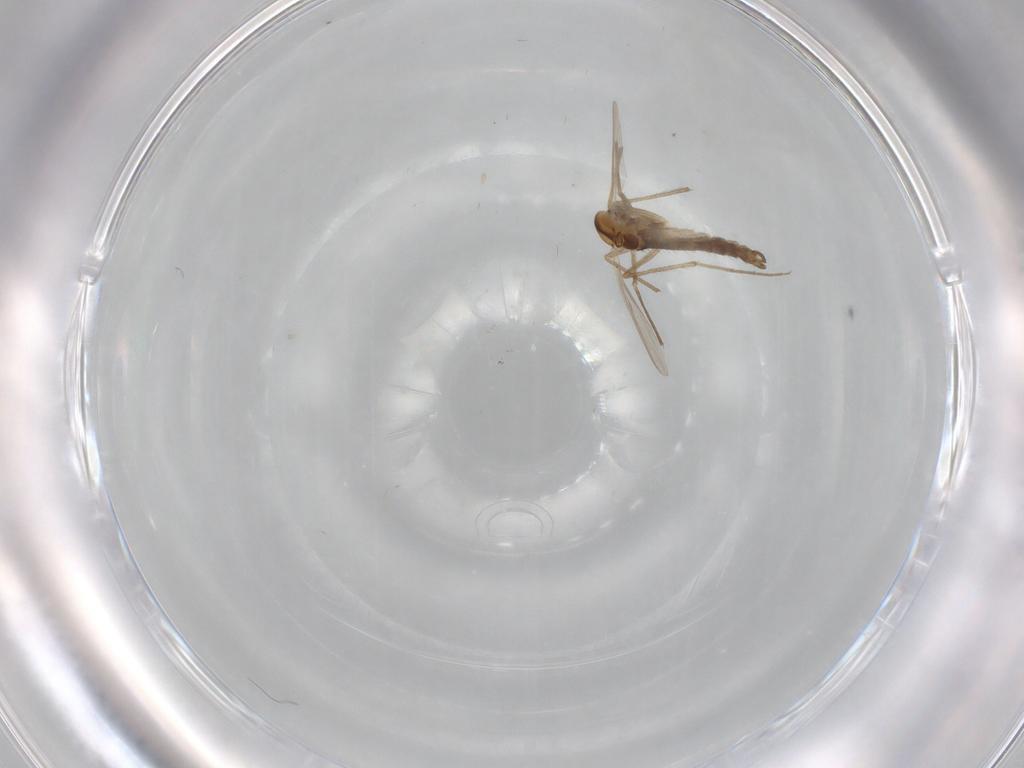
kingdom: Animalia
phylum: Arthropoda
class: Insecta
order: Diptera
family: Chironomidae
